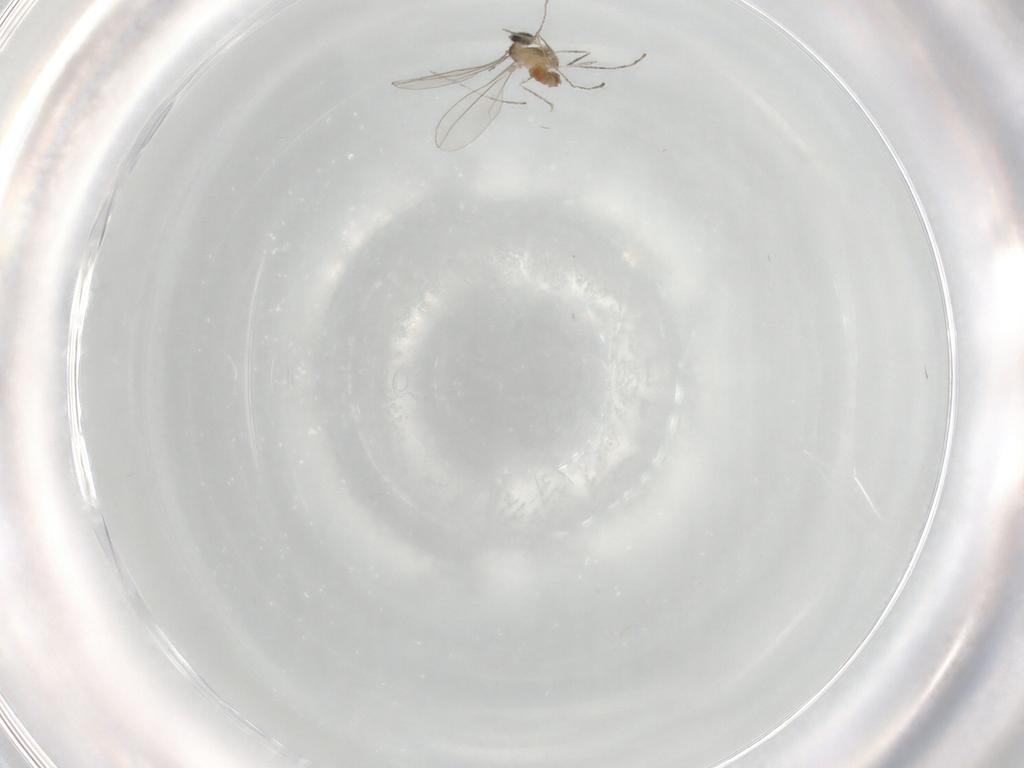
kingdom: Animalia
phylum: Arthropoda
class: Insecta
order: Diptera
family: Cecidomyiidae
